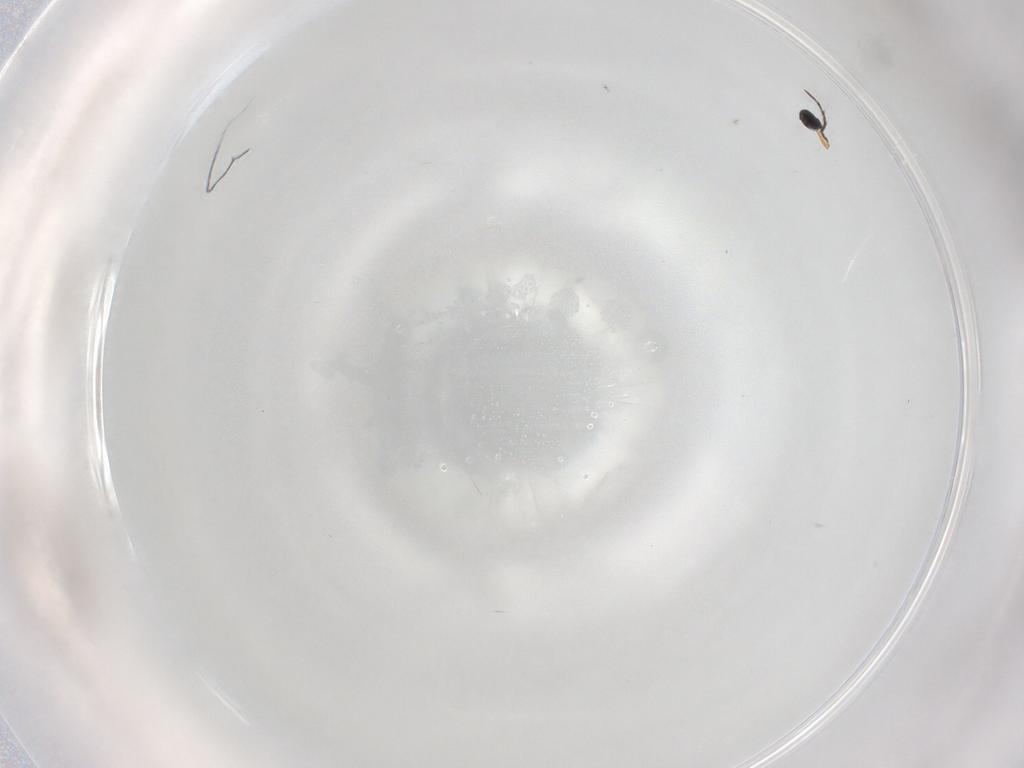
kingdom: Animalia
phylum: Arthropoda
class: Insecta
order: Hymenoptera
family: Platygastridae
